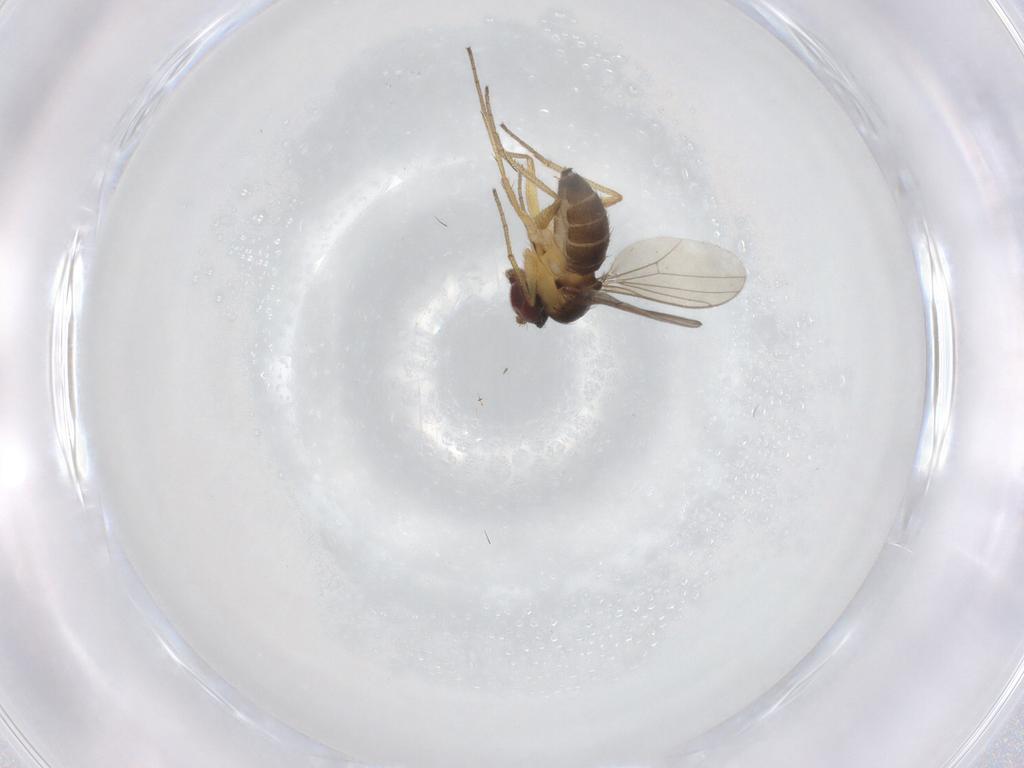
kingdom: Animalia
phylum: Arthropoda
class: Insecta
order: Diptera
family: Dolichopodidae
